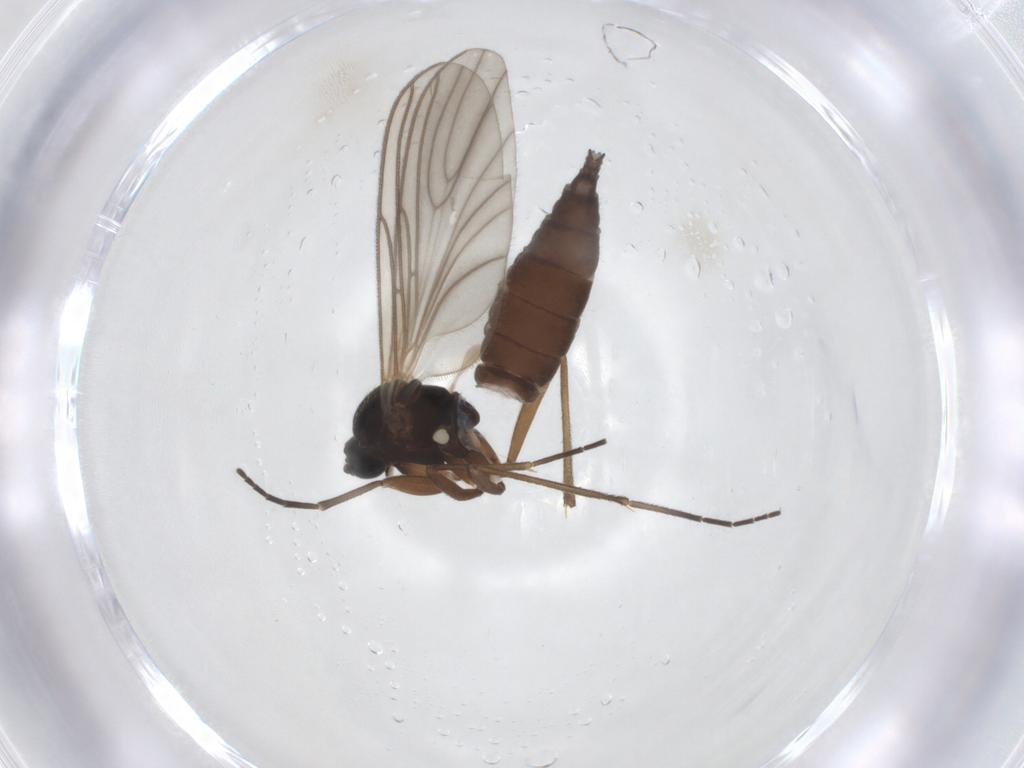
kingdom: Animalia
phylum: Arthropoda
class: Insecta
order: Diptera
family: Sciaridae
